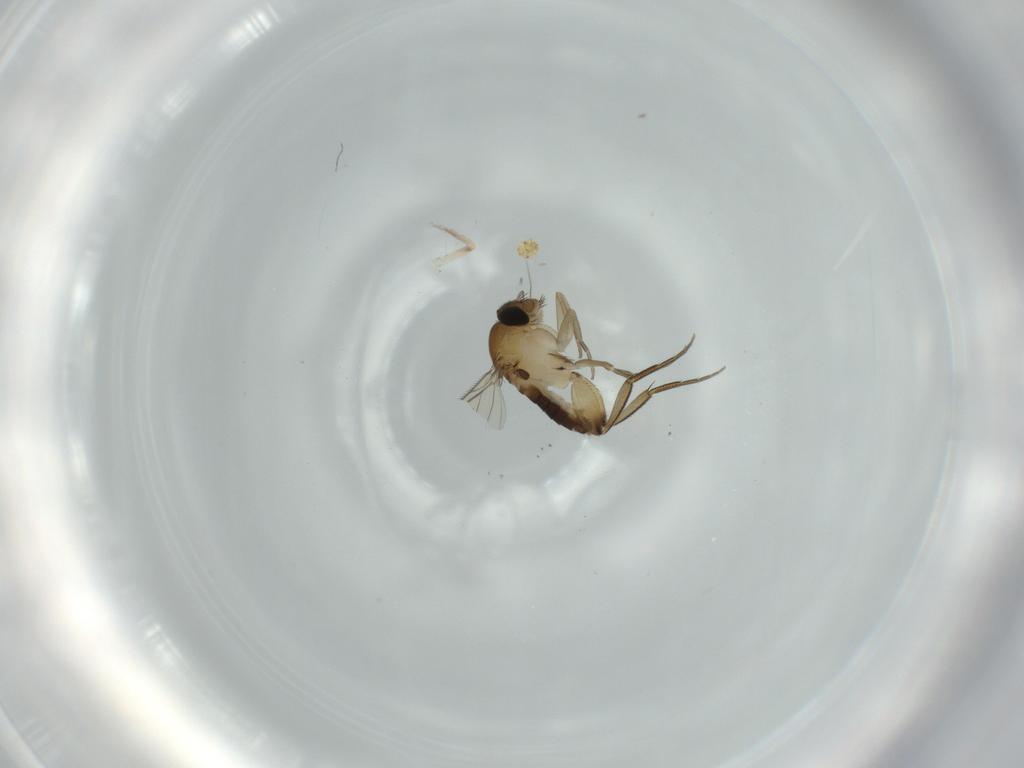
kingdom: Animalia
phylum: Arthropoda
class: Insecta
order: Diptera
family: Phoridae
